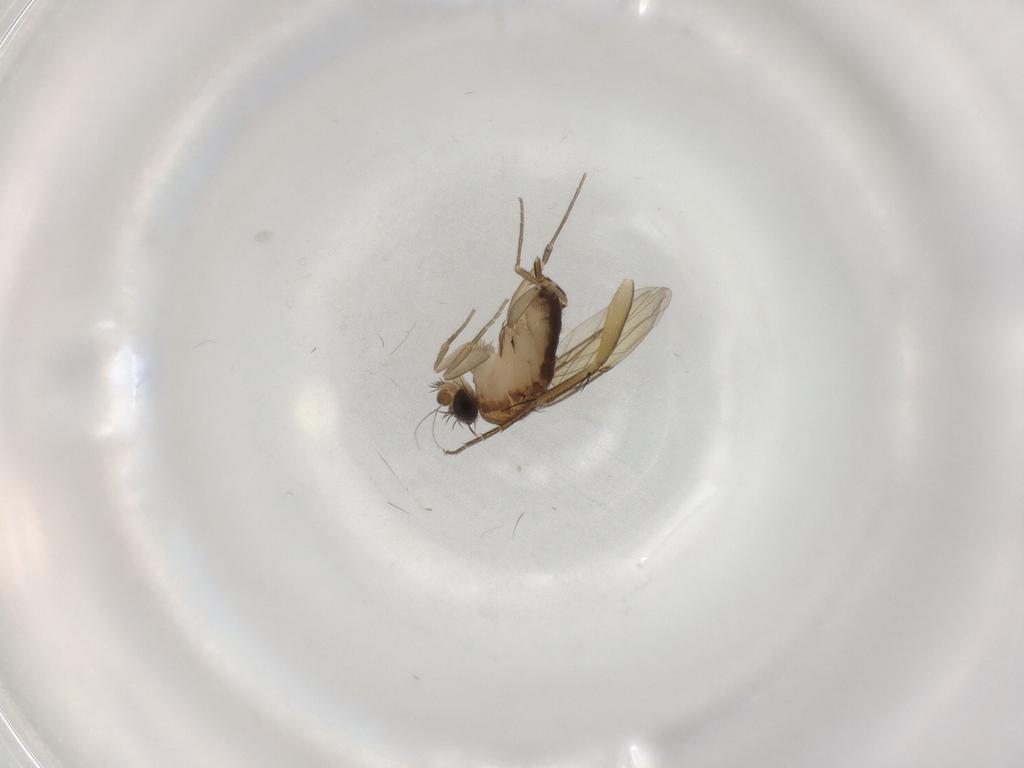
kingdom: Animalia
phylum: Arthropoda
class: Insecta
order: Diptera
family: Phoridae
